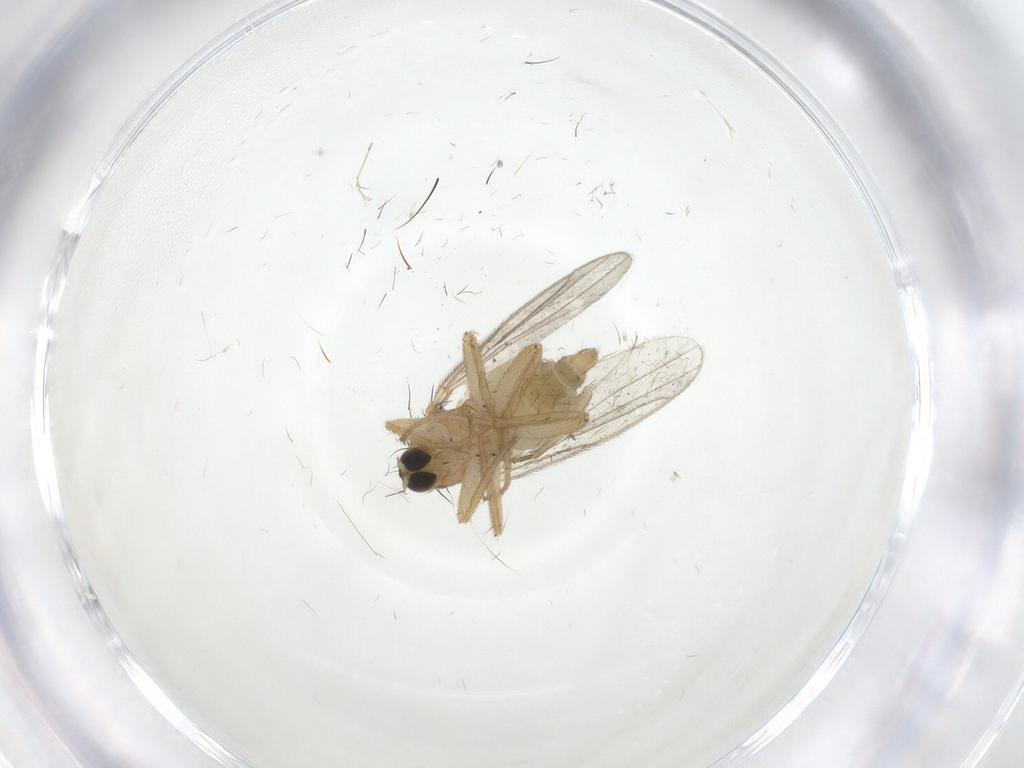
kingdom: Animalia
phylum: Arthropoda
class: Insecta
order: Diptera
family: Hybotidae
